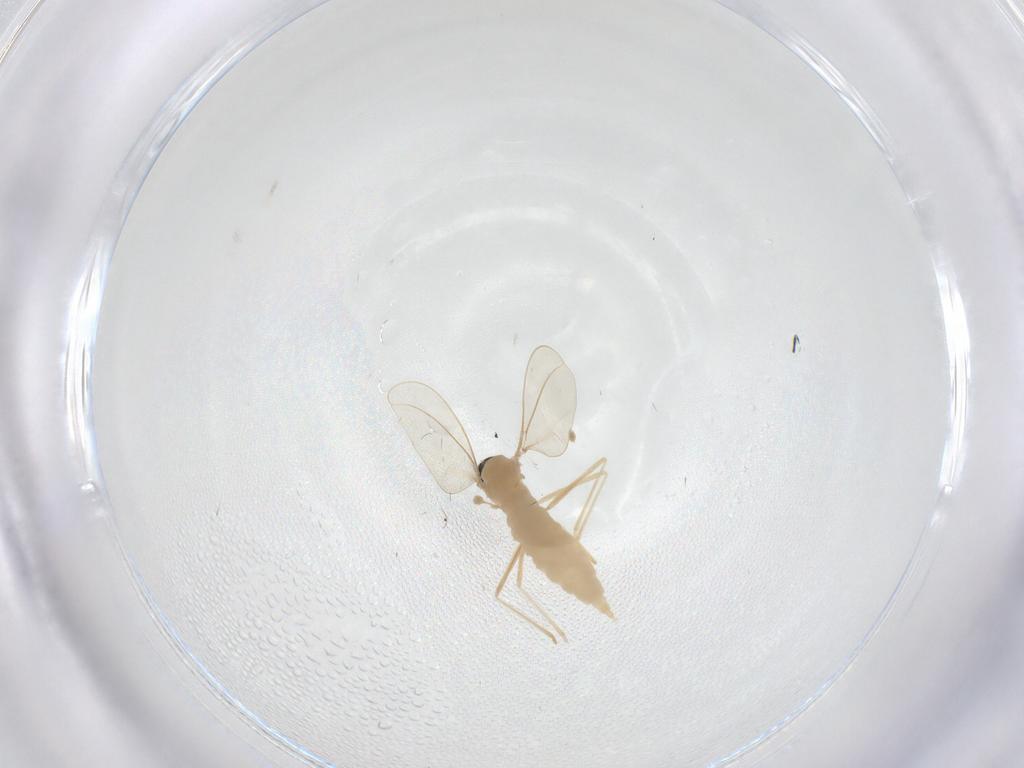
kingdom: Animalia
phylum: Arthropoda
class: Insecta
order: Diptera
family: Cecidomyiidae
